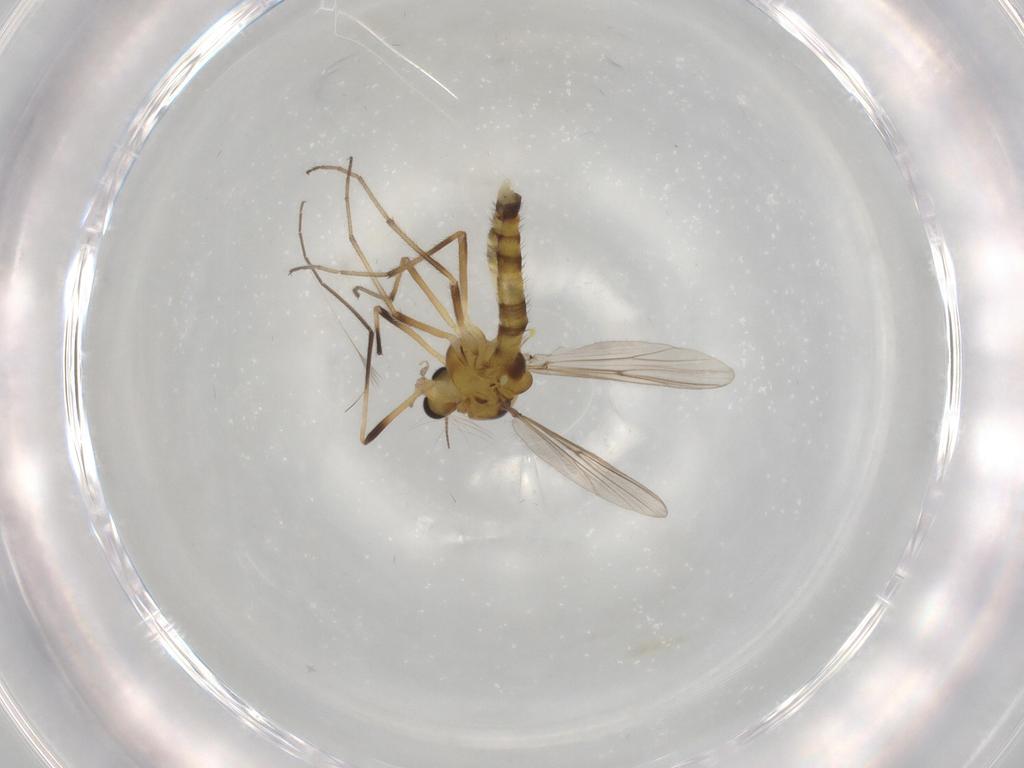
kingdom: Animalia
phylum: Arthropoda
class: Insecta
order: Diptera
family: Chironomidae
